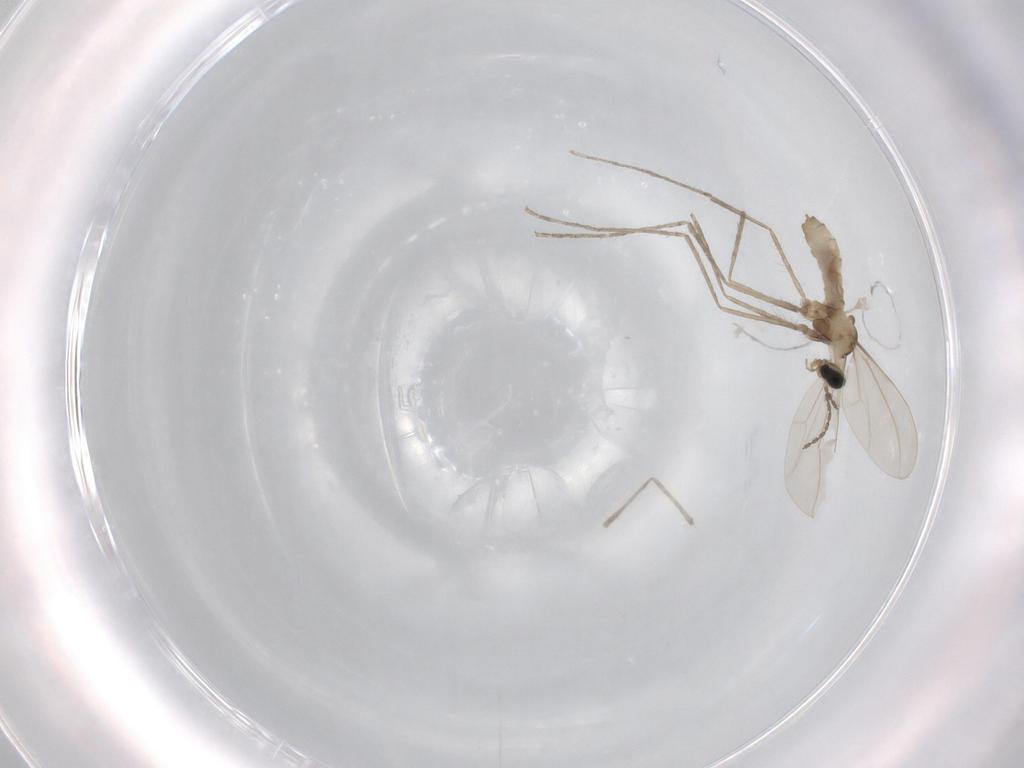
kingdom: Animalia
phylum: Arthropoda
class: Insecta
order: Diptera
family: Cecidomyiidae
